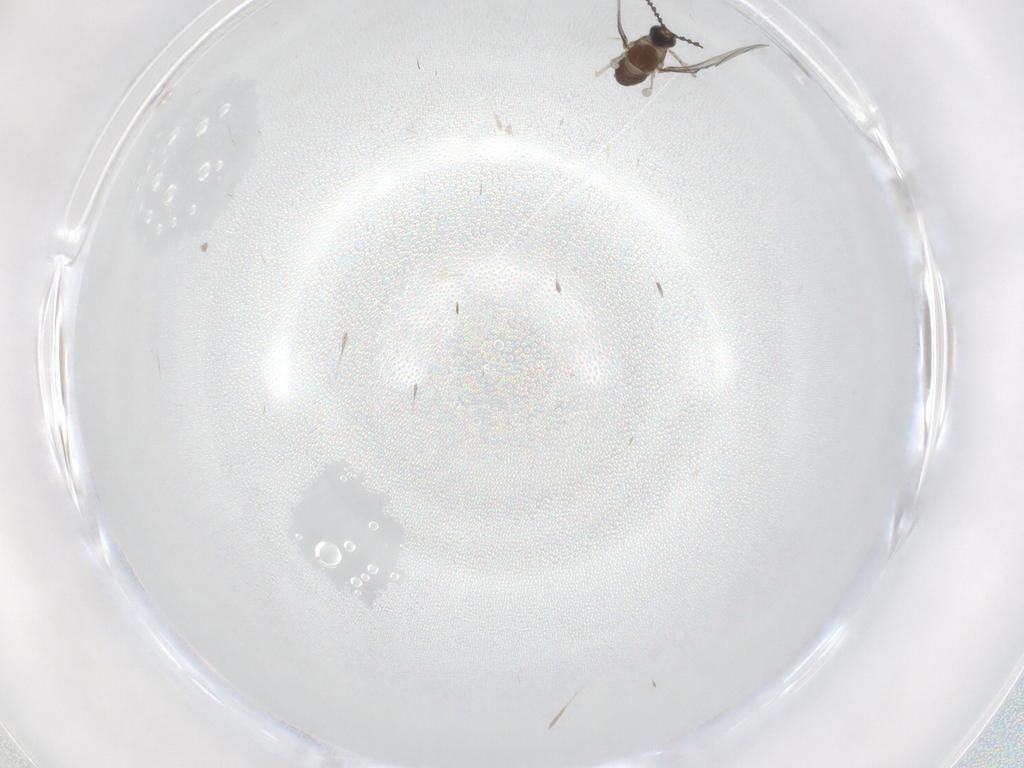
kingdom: Animalia
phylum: Arthropoda
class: Insecta
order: Diptera
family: Cecidomyiidae
